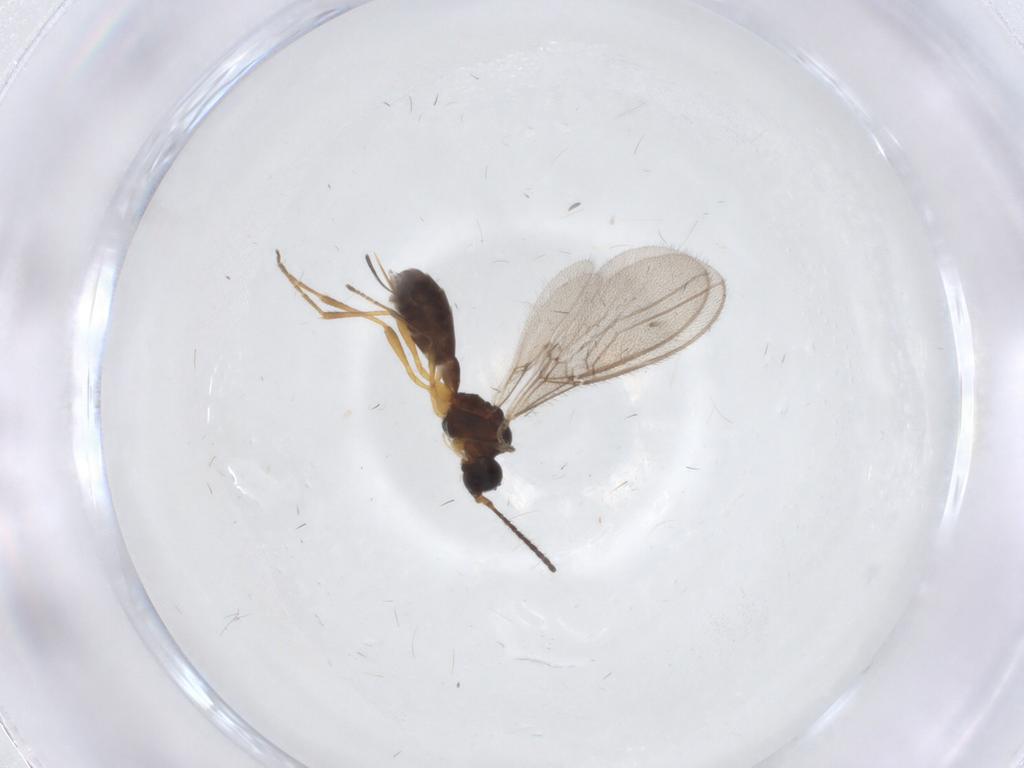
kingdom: Animalia
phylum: Arthropoda
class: Insecta
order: Hymenoptera
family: Braconidae
